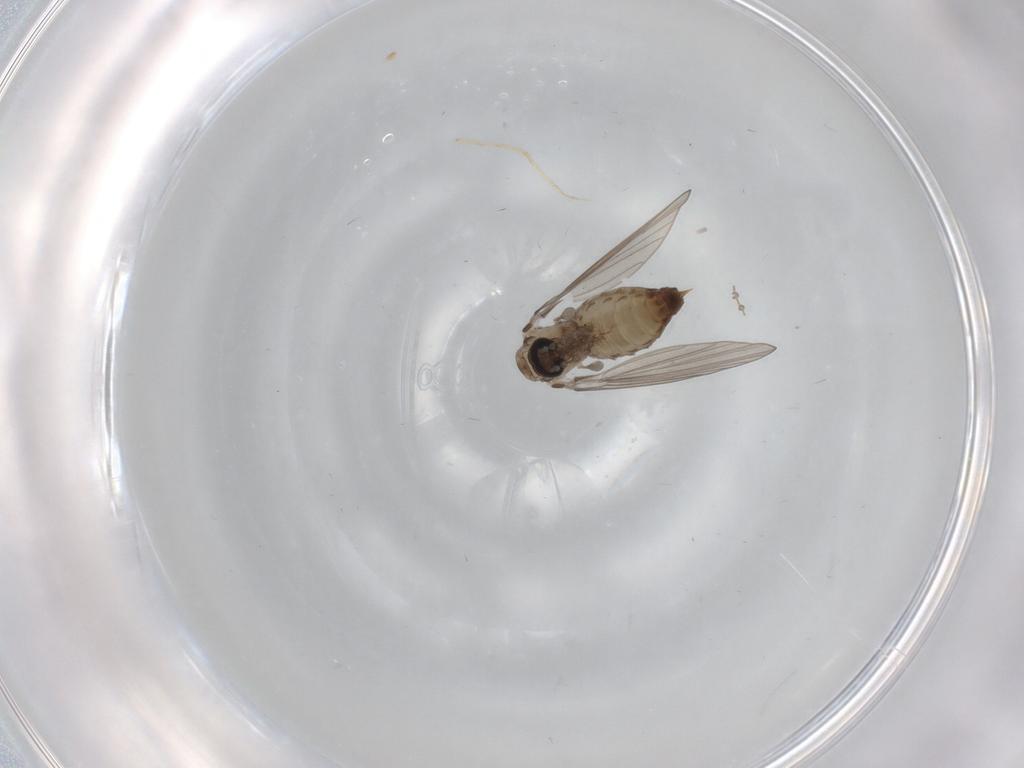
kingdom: Animalia
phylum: Arthropoda
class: Insecta
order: Diptera
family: Psychodidae
